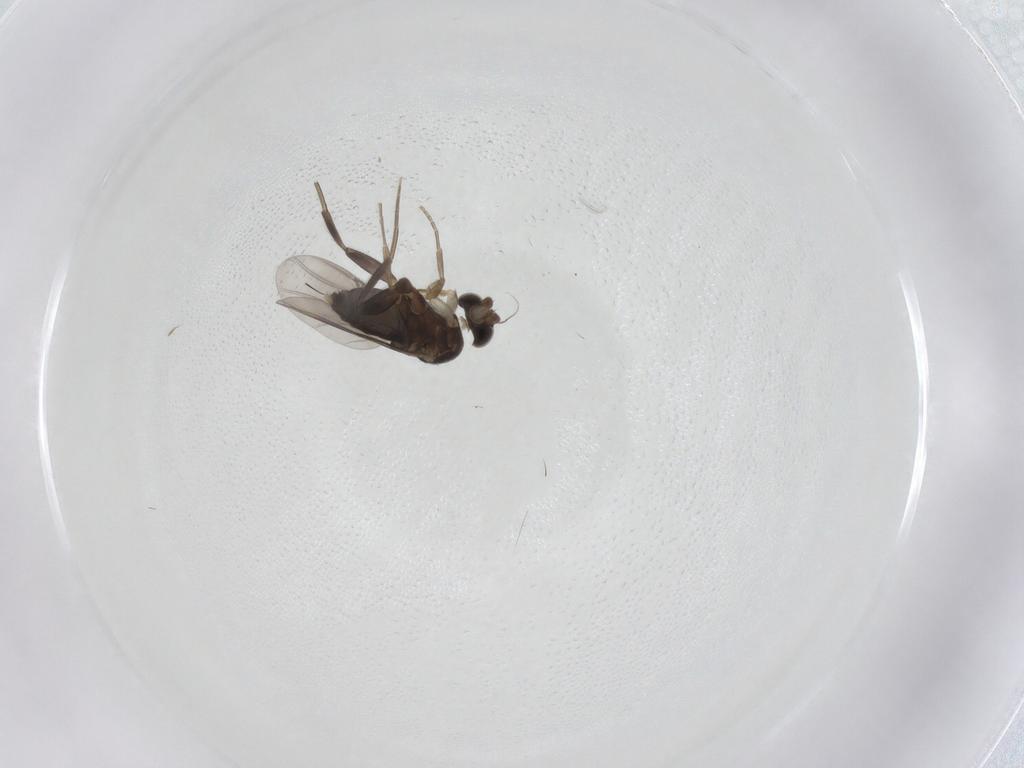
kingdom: Animalia
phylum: Arthropoda
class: Insecta
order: Diptera
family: Phoridae
